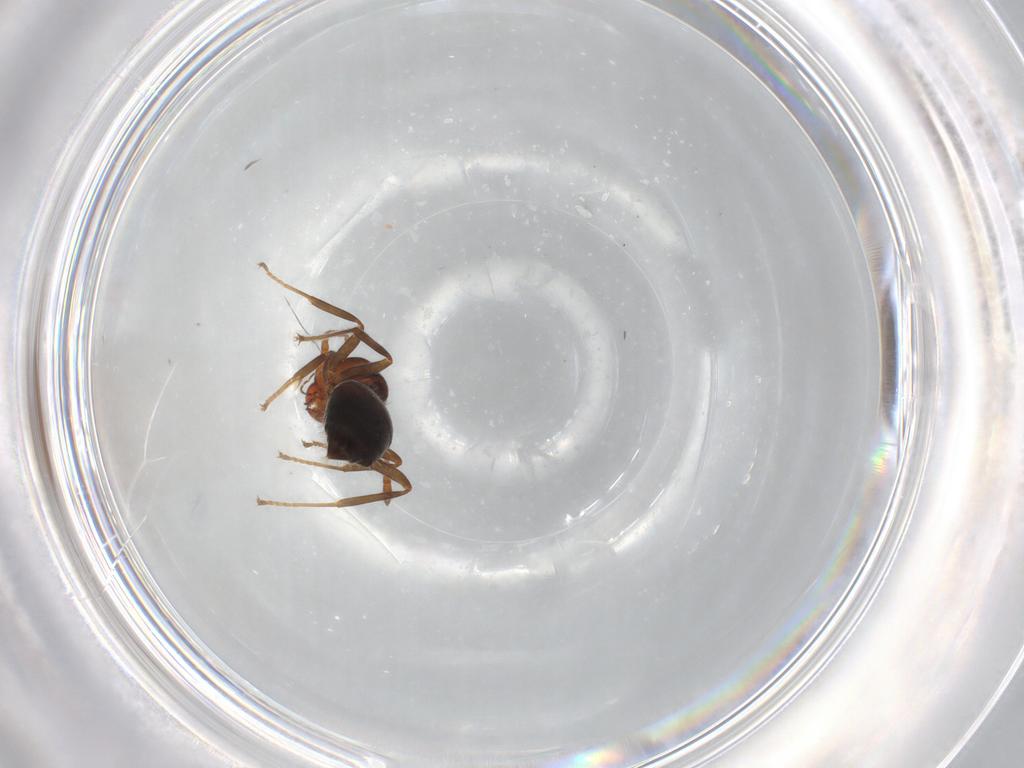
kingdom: Animalia
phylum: Arthropoda
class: Insecta
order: Hymenoptera
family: Formicidae
